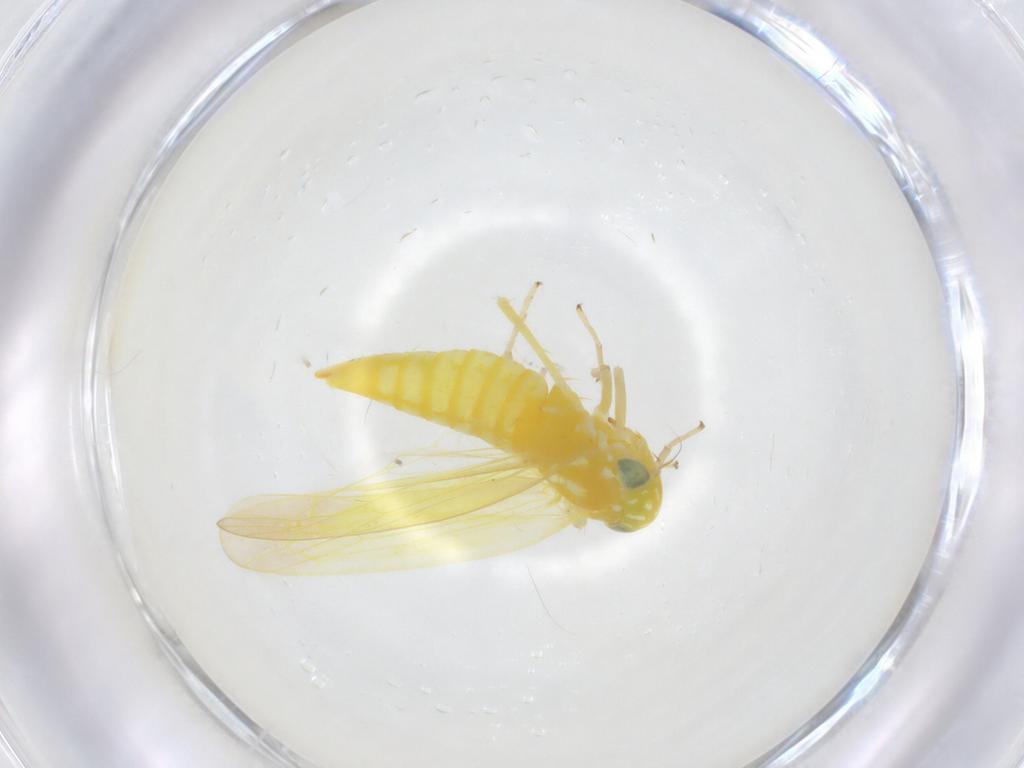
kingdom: Animalia
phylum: Arthropoda
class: Insecta
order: Hemiptera
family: Cicadellidae
